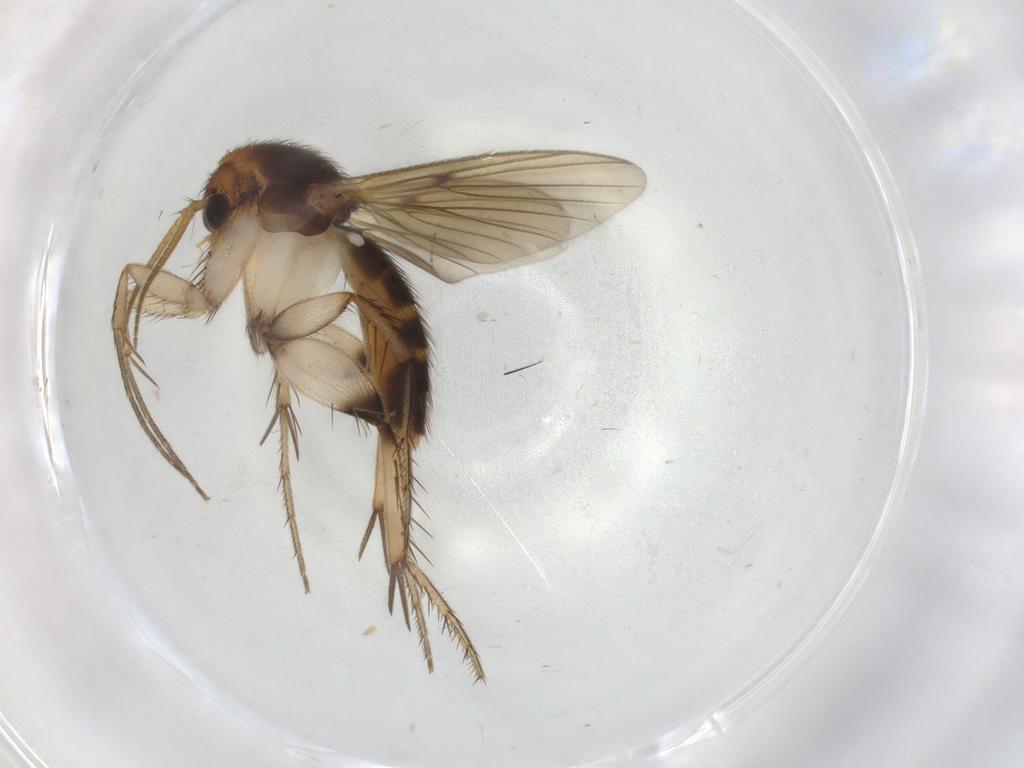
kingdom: Animalia
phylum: Arthropoda
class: Insecta
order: Diptera
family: Mycetophilidae
